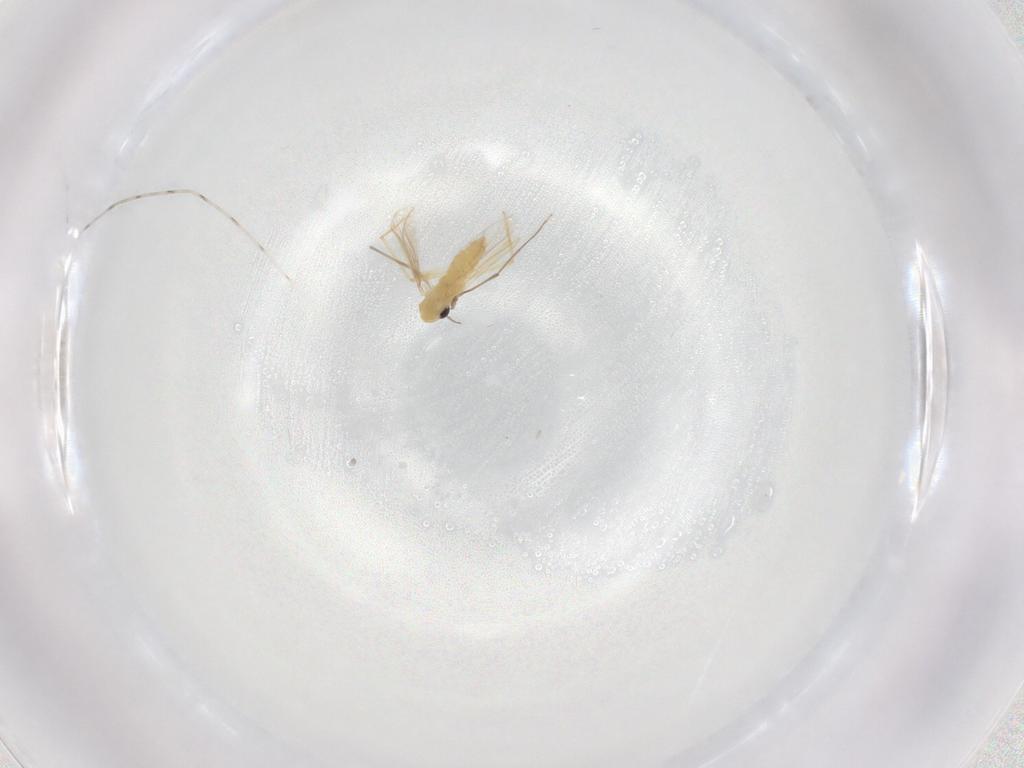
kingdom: Animalia
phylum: Arthropoda
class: Insecta
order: Diptera
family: Chironomidae
